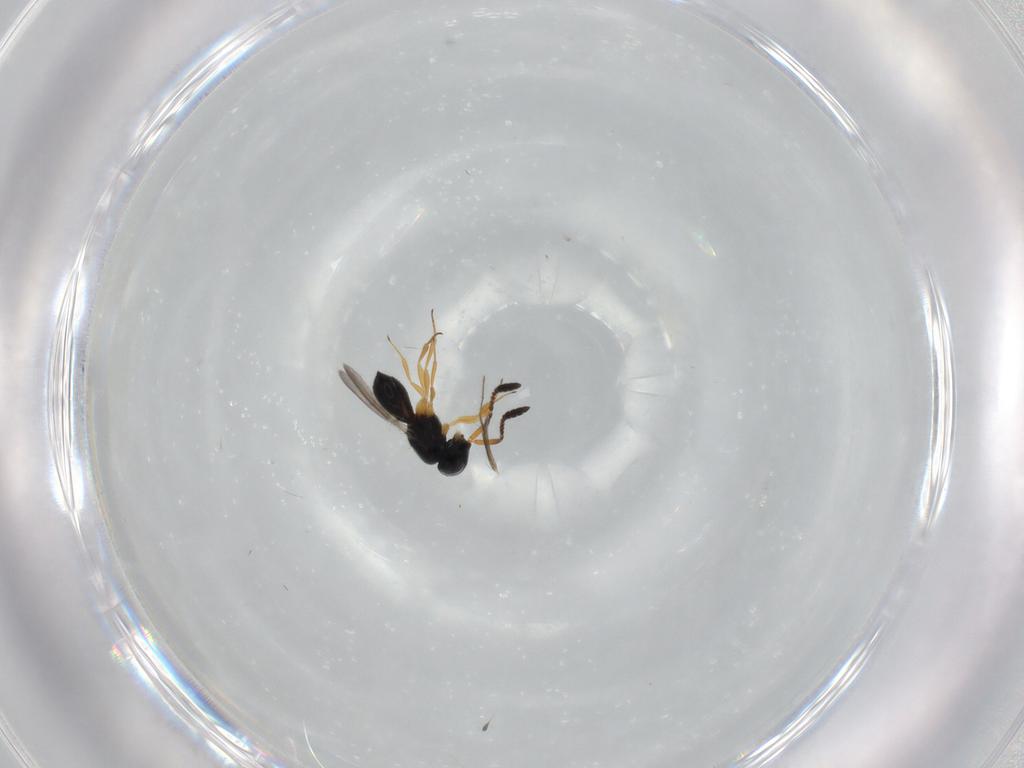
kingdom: Animalia
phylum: Arthropoda
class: Insecta
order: Hymenoptera
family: Scelionidae
